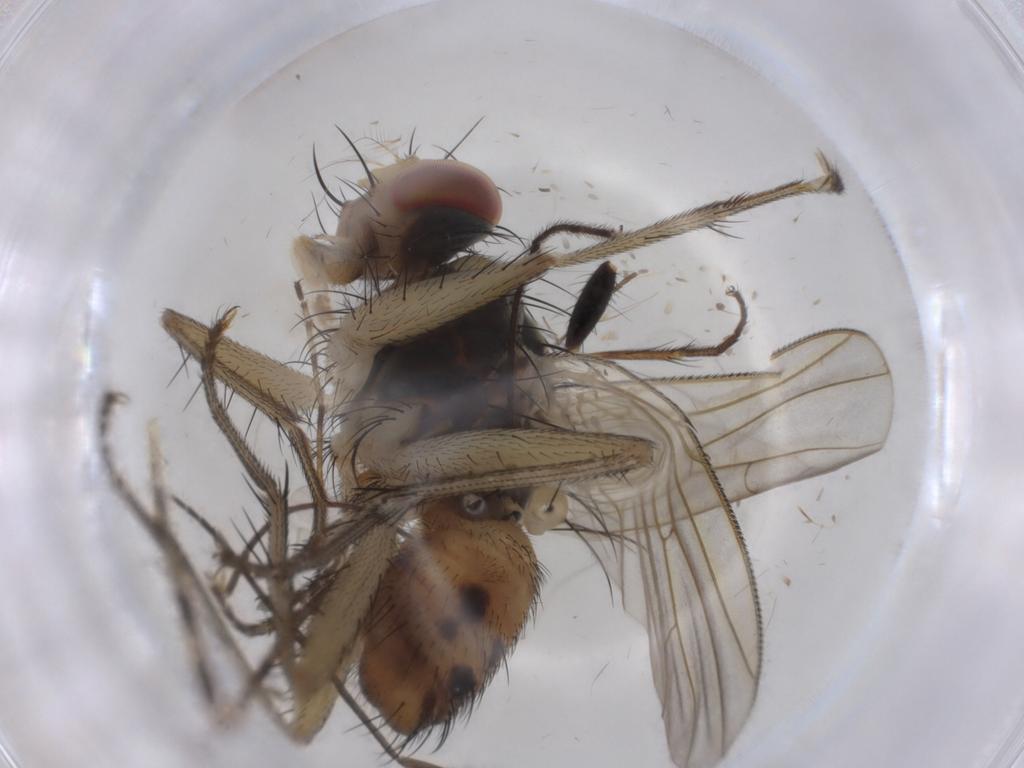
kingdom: Animalia
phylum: Arthropoda
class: Insecta
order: Diptera
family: Muscidae
